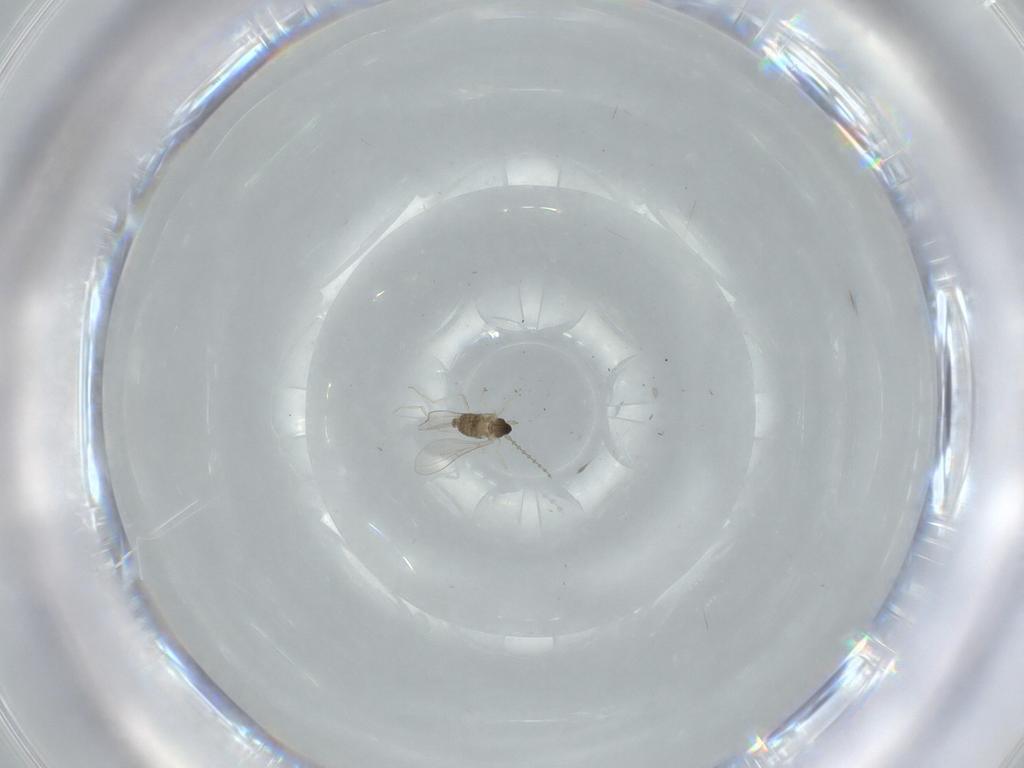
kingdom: Animalia
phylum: Arthropoda
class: Insecta
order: Diptera
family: Cecidomyiidae
